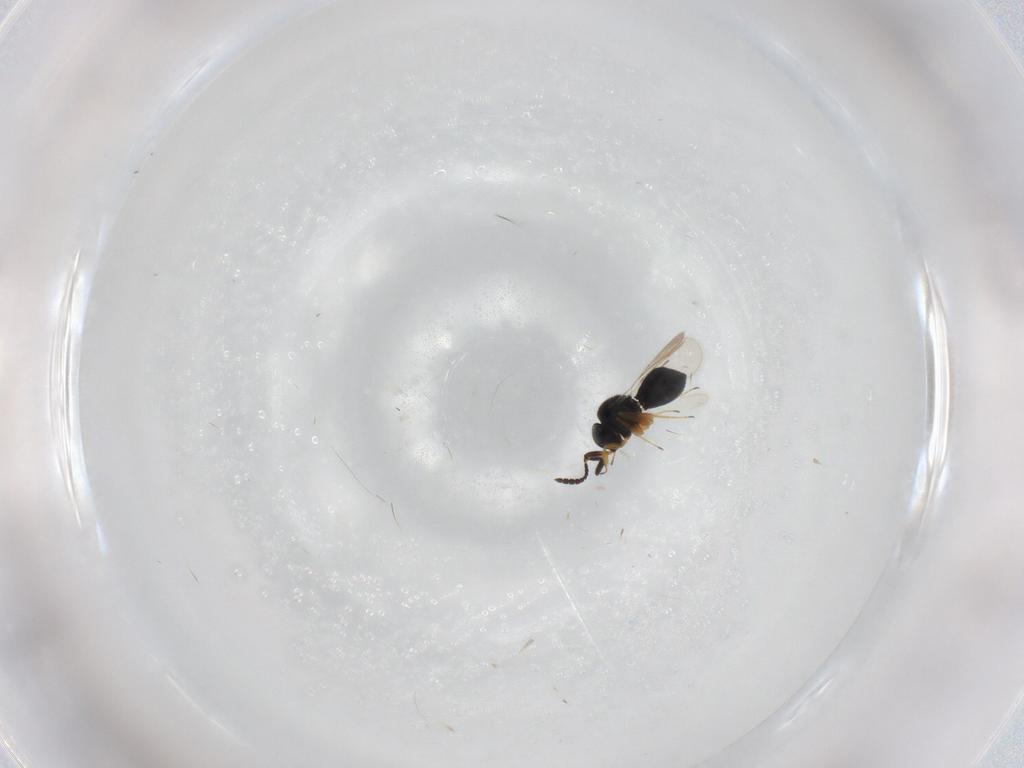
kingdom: Animalia
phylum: Arthropoda
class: Insecta
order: Hymenoptera
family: Scelionidae
